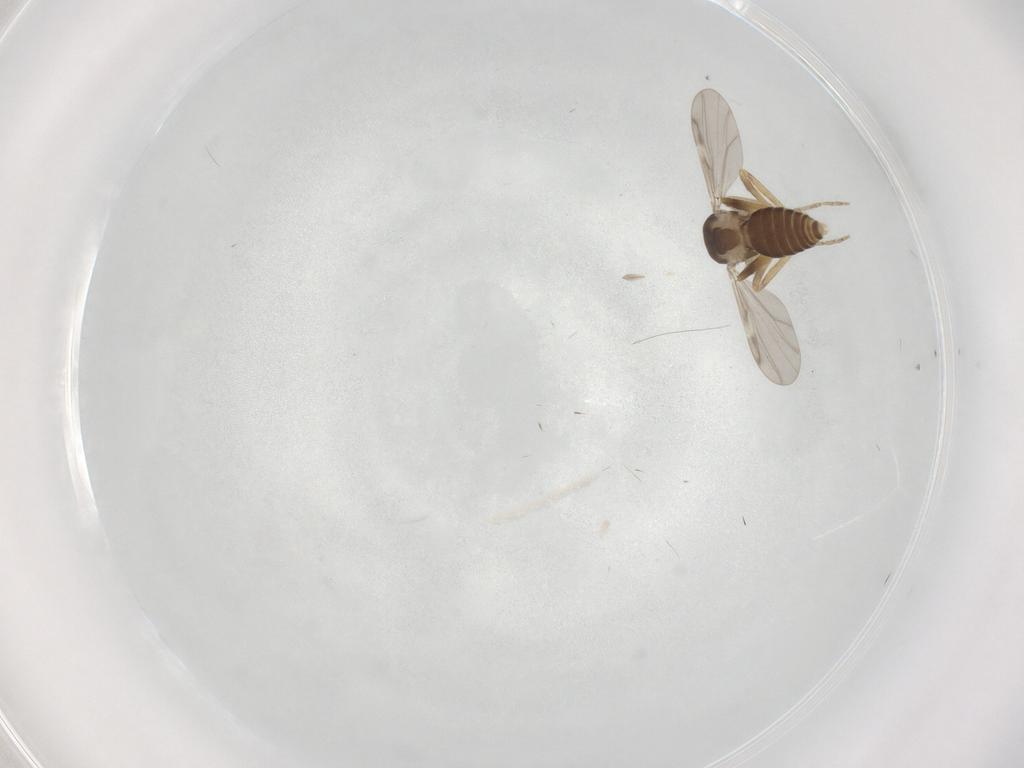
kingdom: Animalia
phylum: Arthropoda
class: Insecta
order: Diptera
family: Ceratopogonidae
